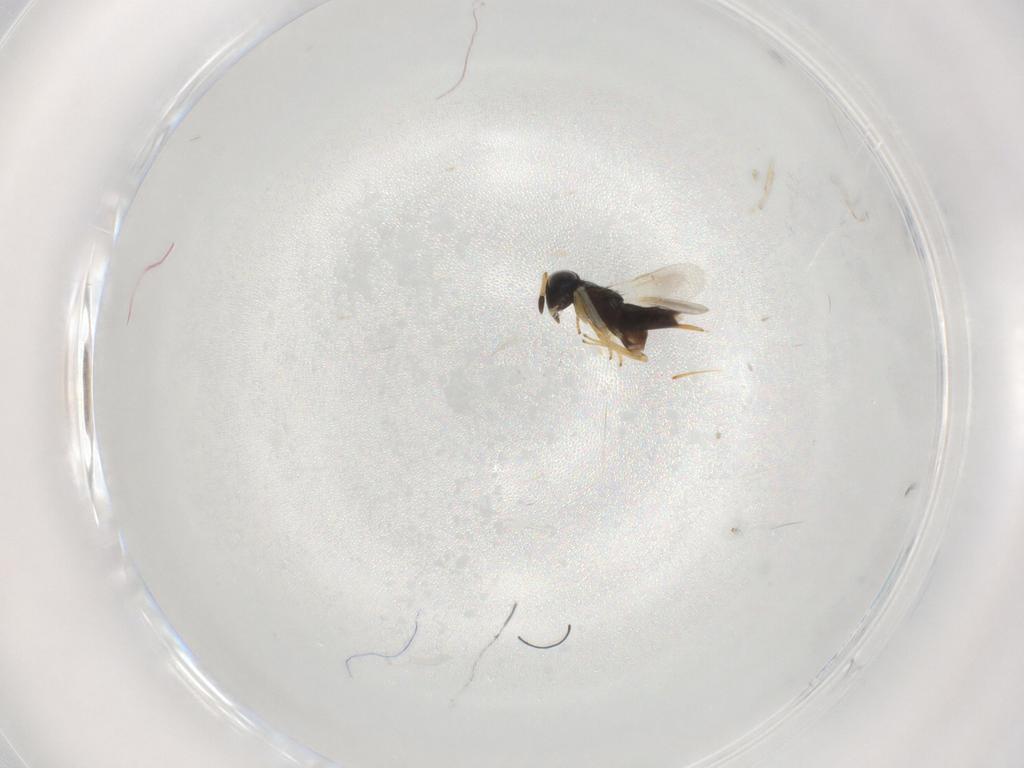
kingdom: Animalia
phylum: Arthropoda
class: Insecta
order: Hymenoptera
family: Encyrtidae
